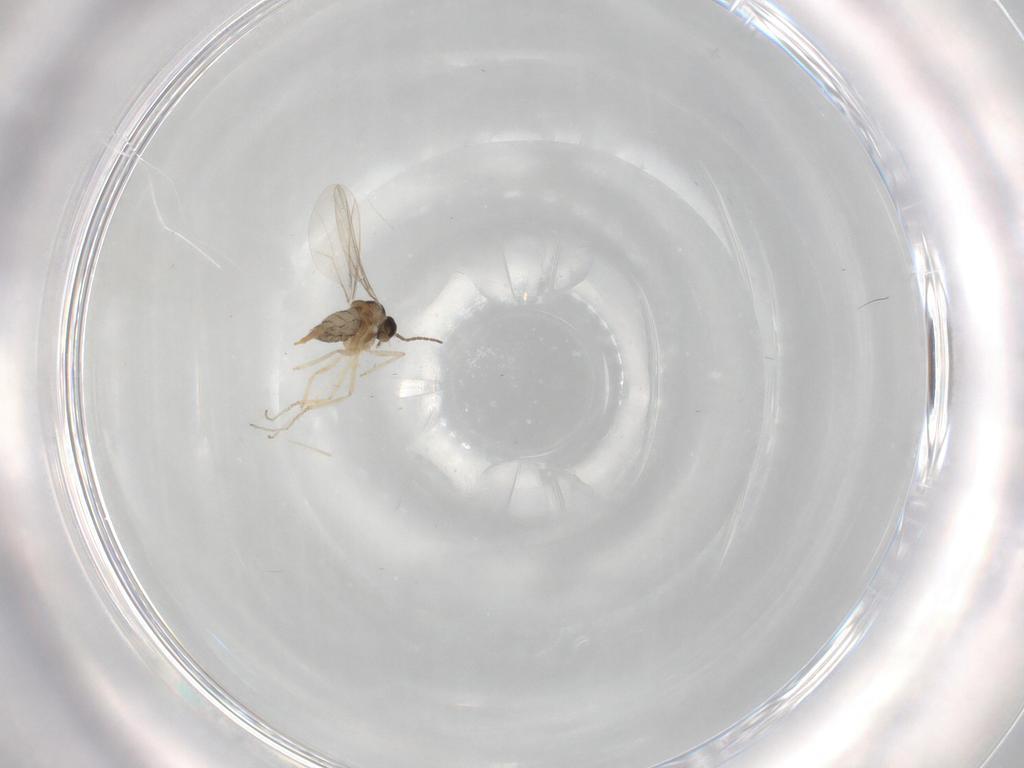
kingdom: Animalia
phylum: Arthropoda
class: Insecta
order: Diptera
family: Cecidomyiidae
